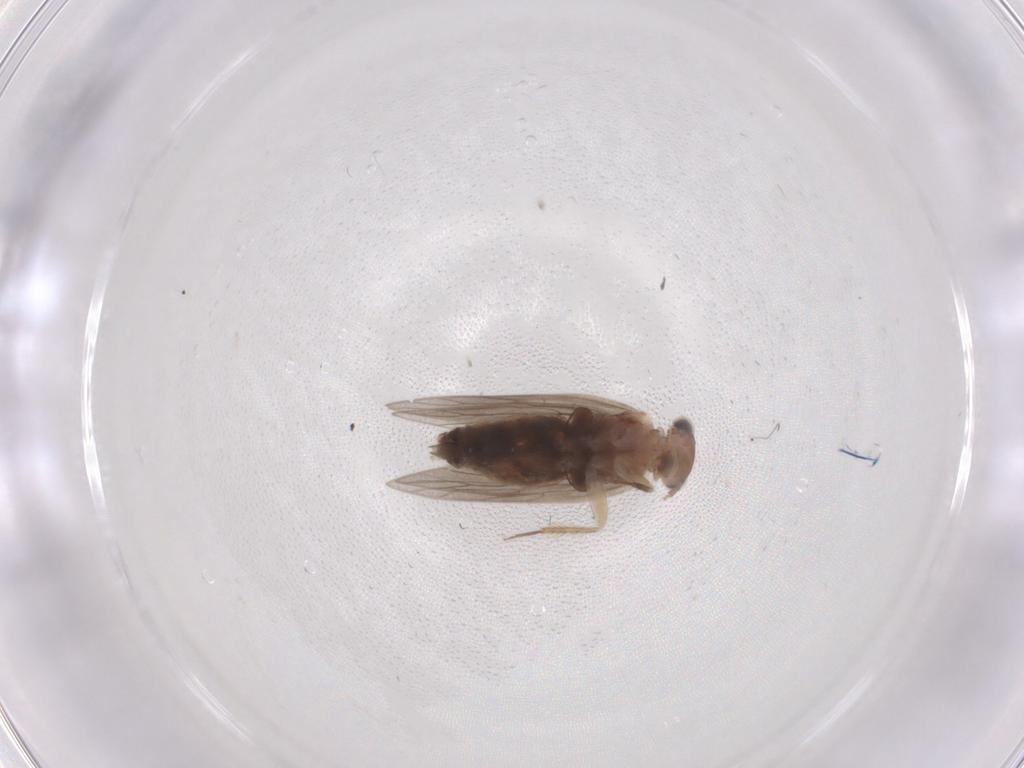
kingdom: Animalia
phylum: Arthropoda
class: Insecta
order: Psocodea
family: Lepidopsocidae
